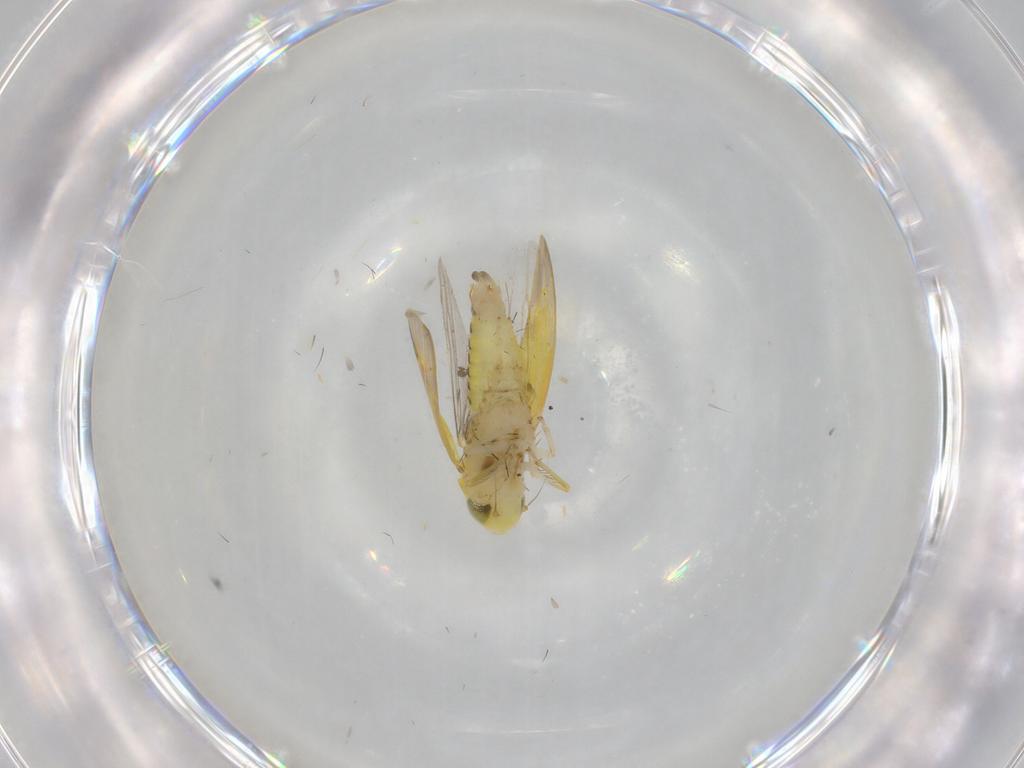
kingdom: Animalia
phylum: Arthropoda
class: Insecta
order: Hemiptera
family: Cicadellidae
